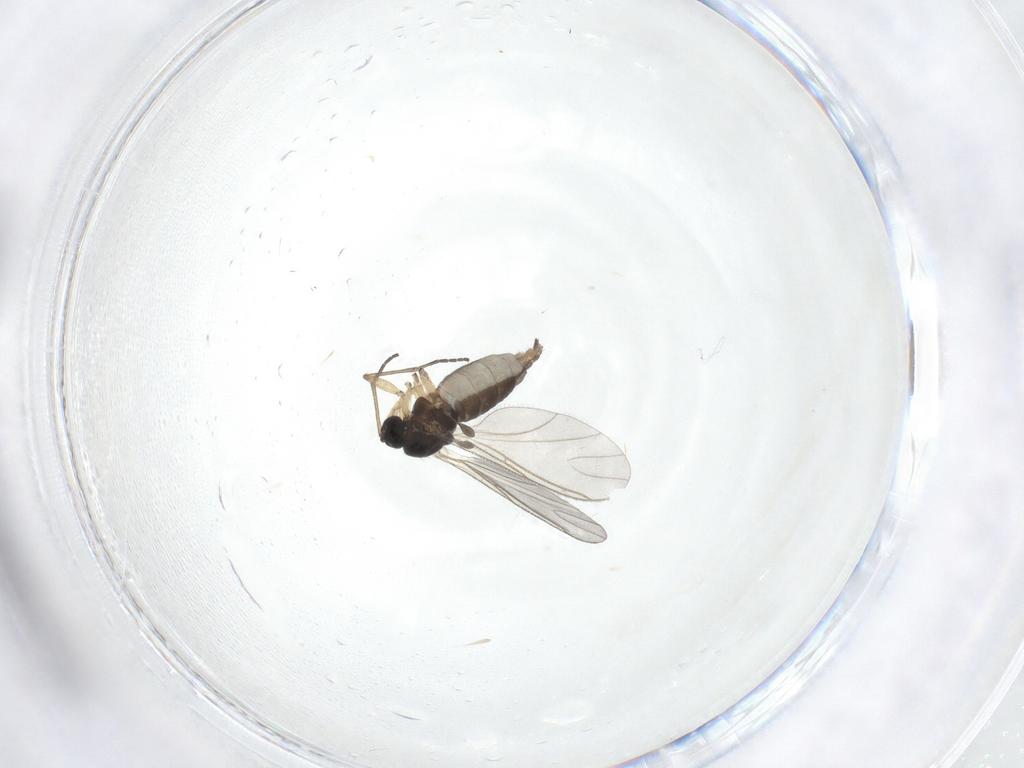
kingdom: Animalia
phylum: Arthropoda
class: Insecta
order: Diptera
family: Sciaridae
